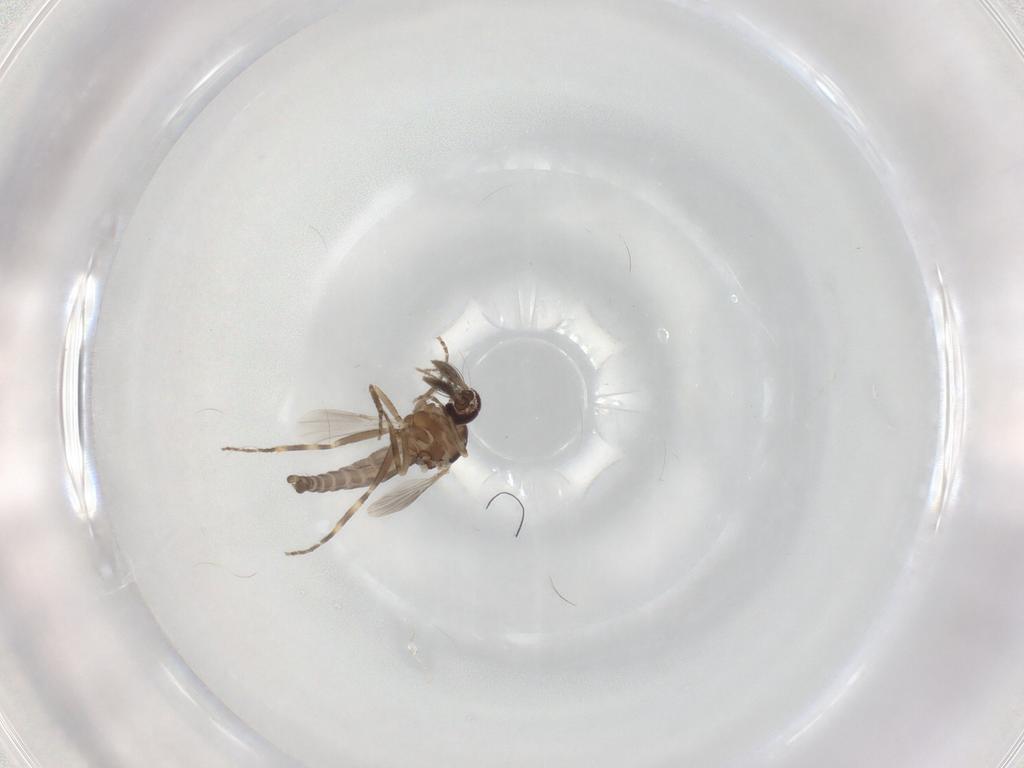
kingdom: Animalia
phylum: Arthropoda
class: Insecta
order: Diptera
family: Ceratopogonidae
